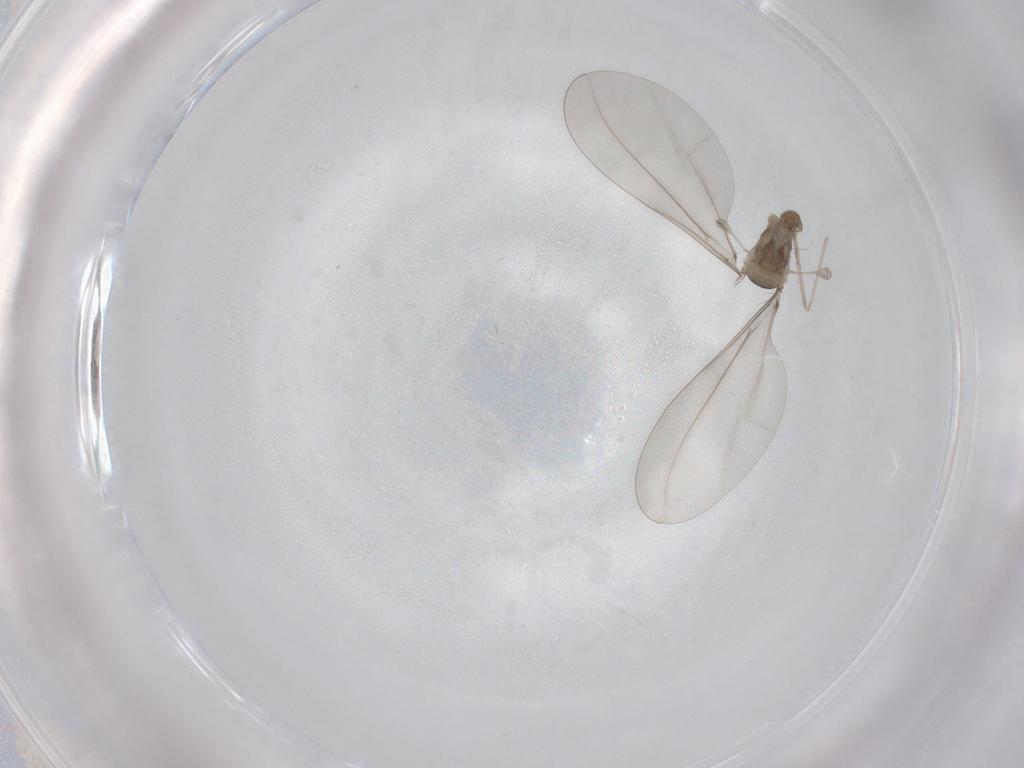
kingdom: Animalia
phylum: Arthropoda
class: Insecta
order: Diptera
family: Cecidomyiidae
